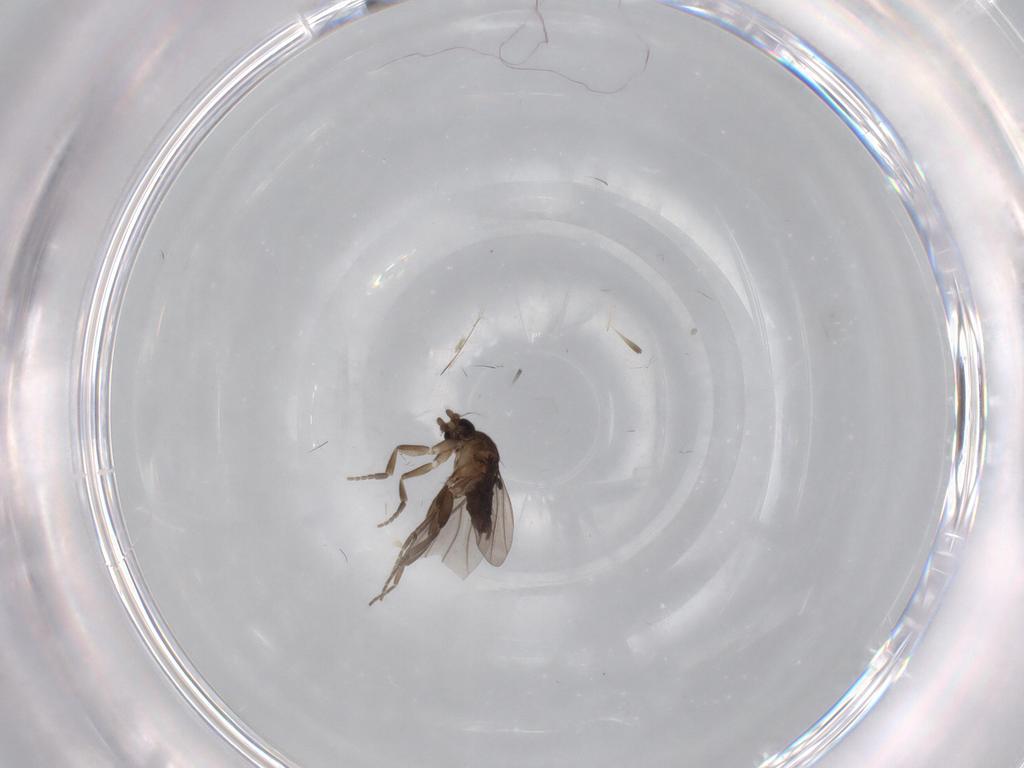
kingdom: Animalia
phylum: Arthropoda
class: Insecta
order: Diptera
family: Phoridae
